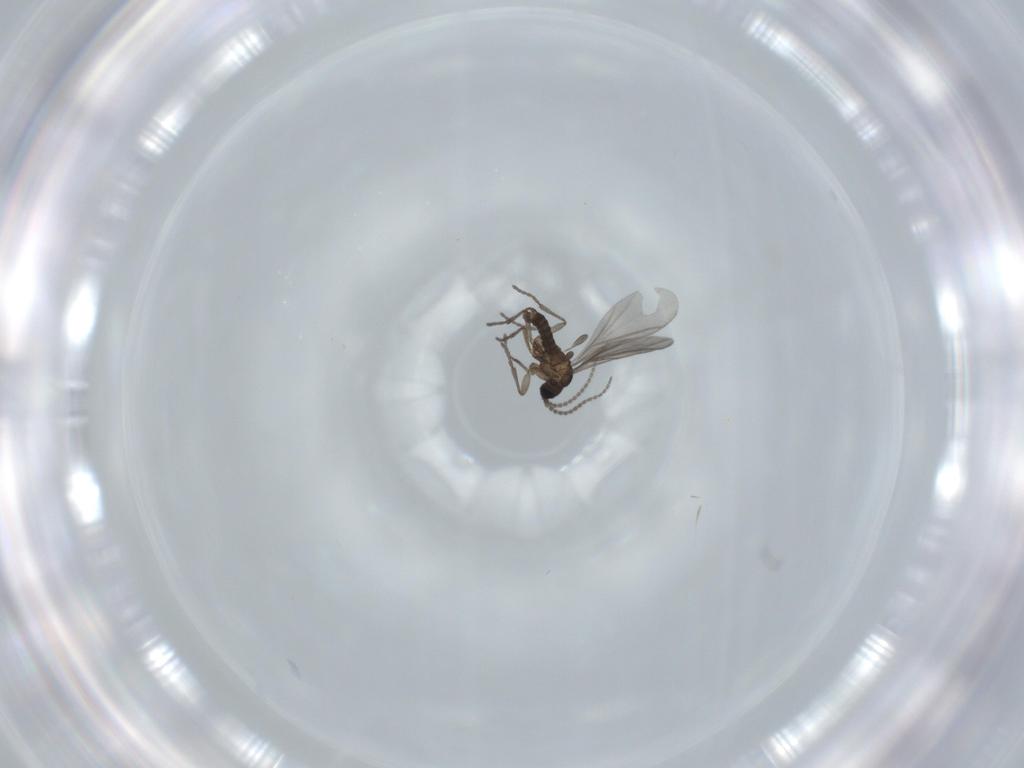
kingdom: Animalia
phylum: Arthropoda
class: Insecta
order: Diptera
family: Sciaridae
